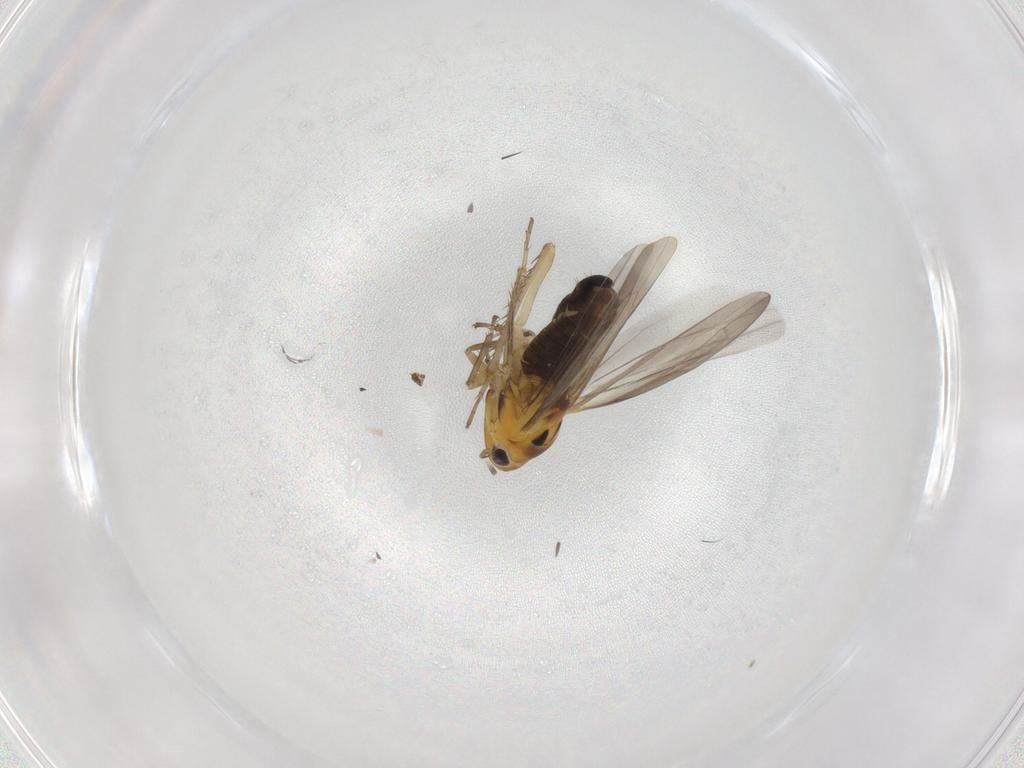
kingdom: Animalia
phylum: Arthropoda
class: Insecta
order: Hemiptera
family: Cicadellidae
